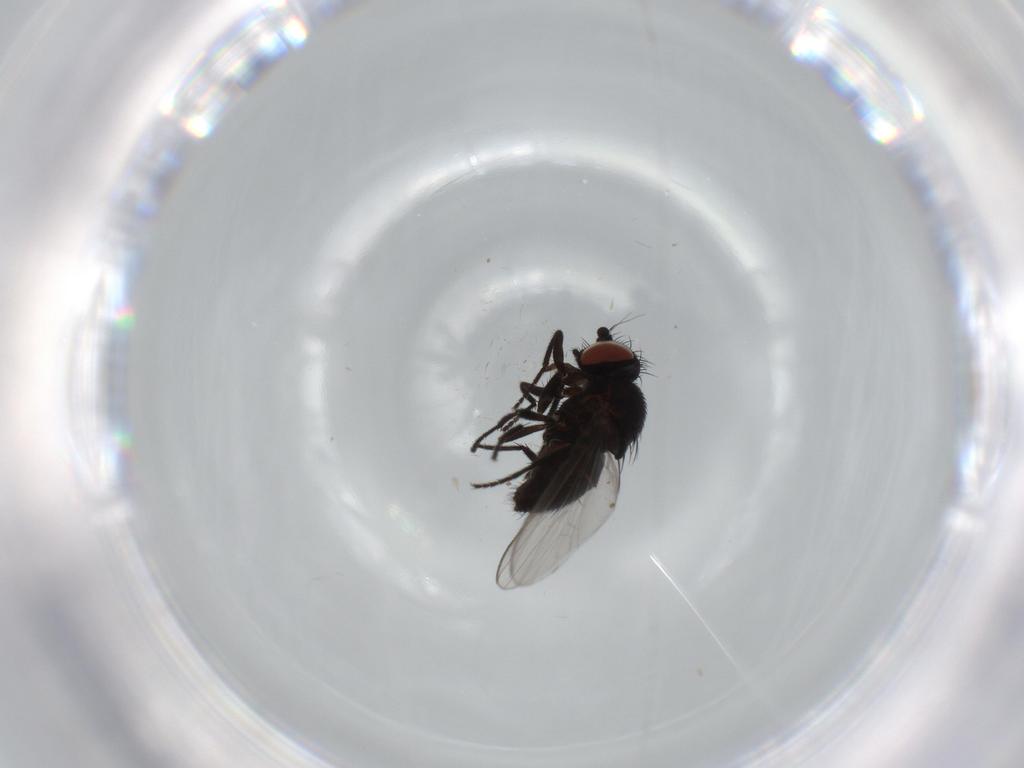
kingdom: Animalia
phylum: Arthropoda
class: Insecta
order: Diptera
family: Milichiidae
